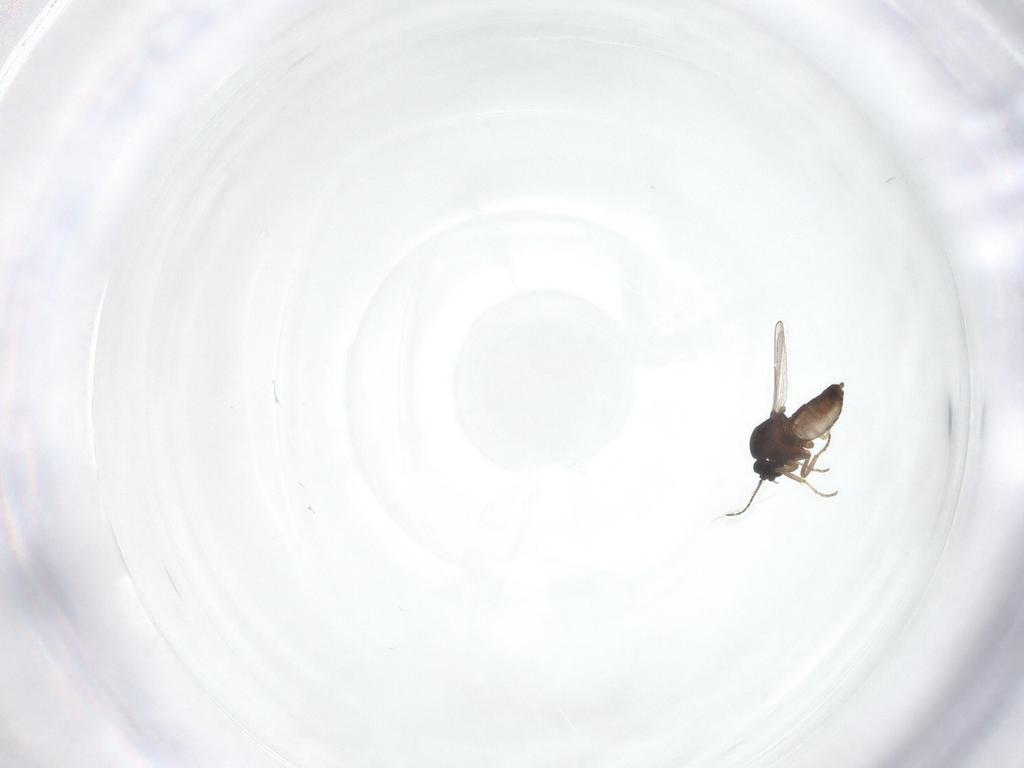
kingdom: Animalia
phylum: Arthropoda
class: Insecta
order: Diptera
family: Ceratopogonidae
